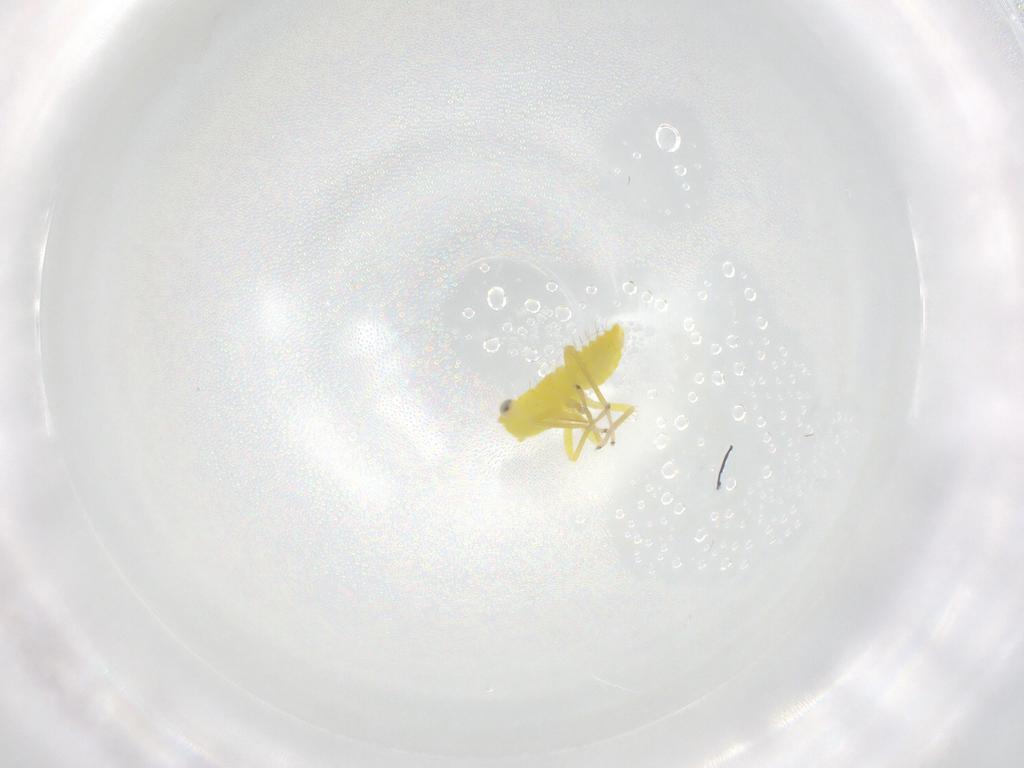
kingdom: Animalia
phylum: Arthropoda
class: Insecta
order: Hemiptera
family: Cicadellidae
